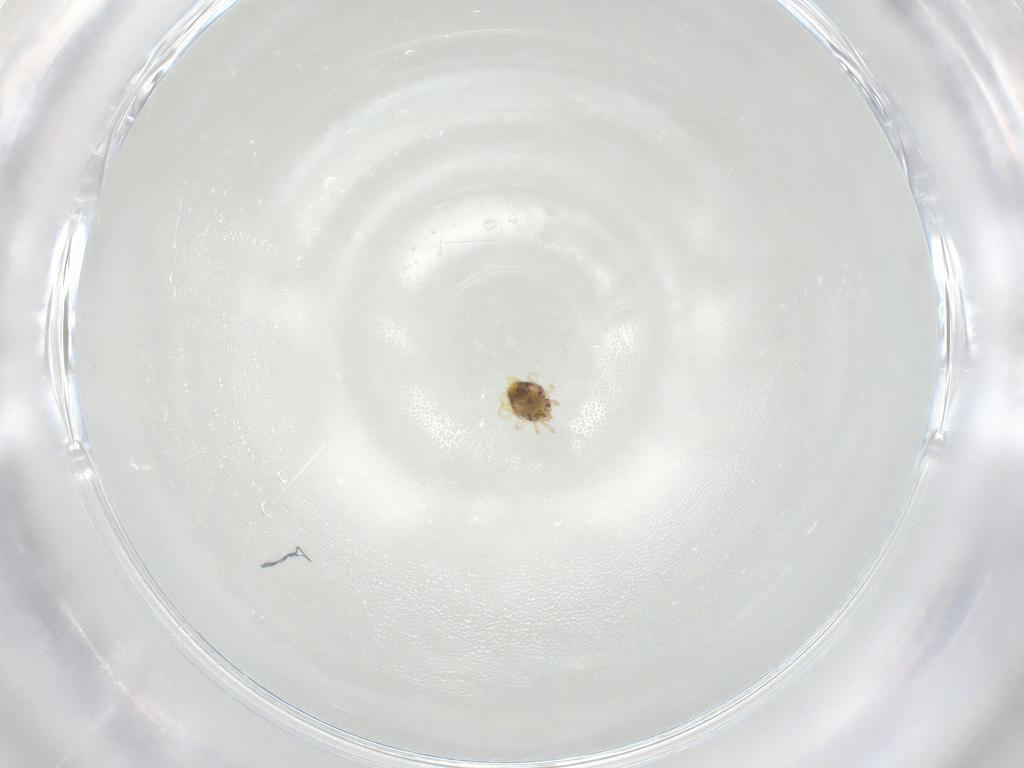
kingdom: Animalia
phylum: Arthropoda
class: Arachnida
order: Mesostigmata
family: Phytoseiidae
